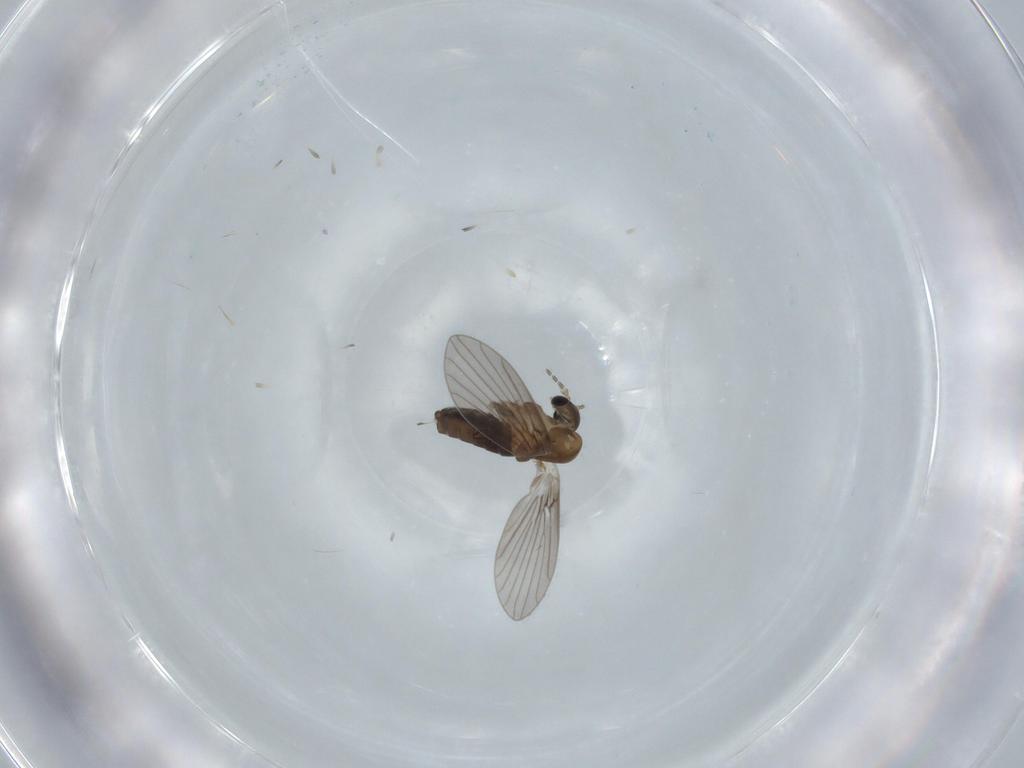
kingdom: Animalia
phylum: Arthropoda
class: Insecta
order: Diptera
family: Psychodidae
